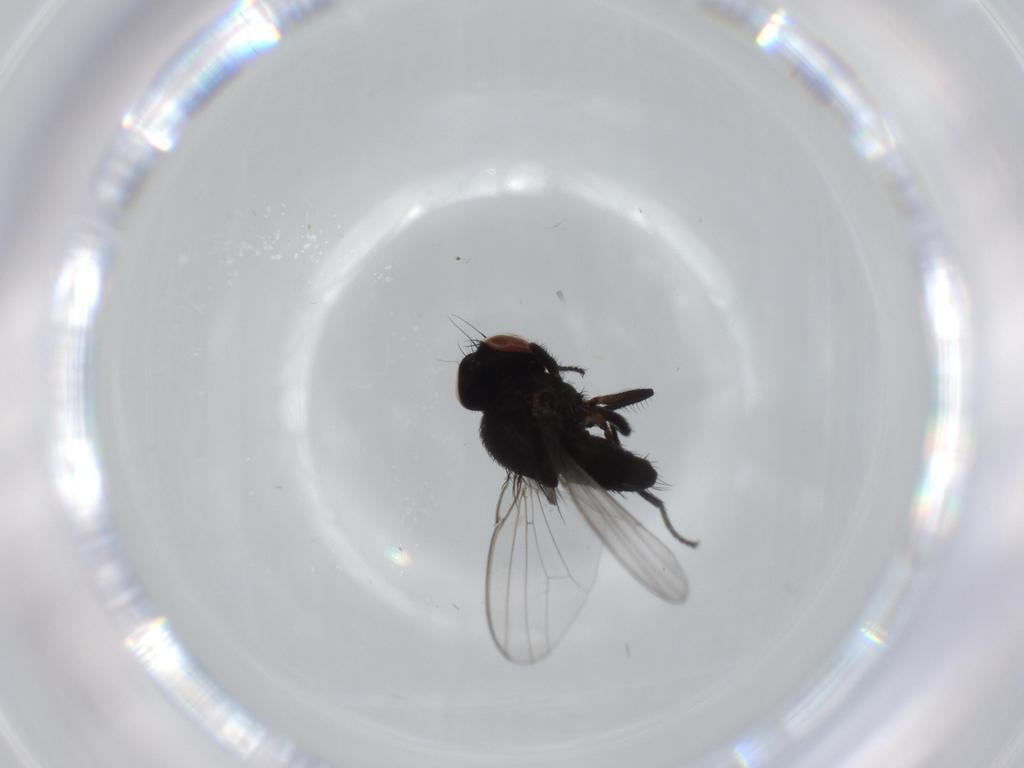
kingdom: Animalia
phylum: Arthropoda
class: Insecta
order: Diptera
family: Milichiidae
